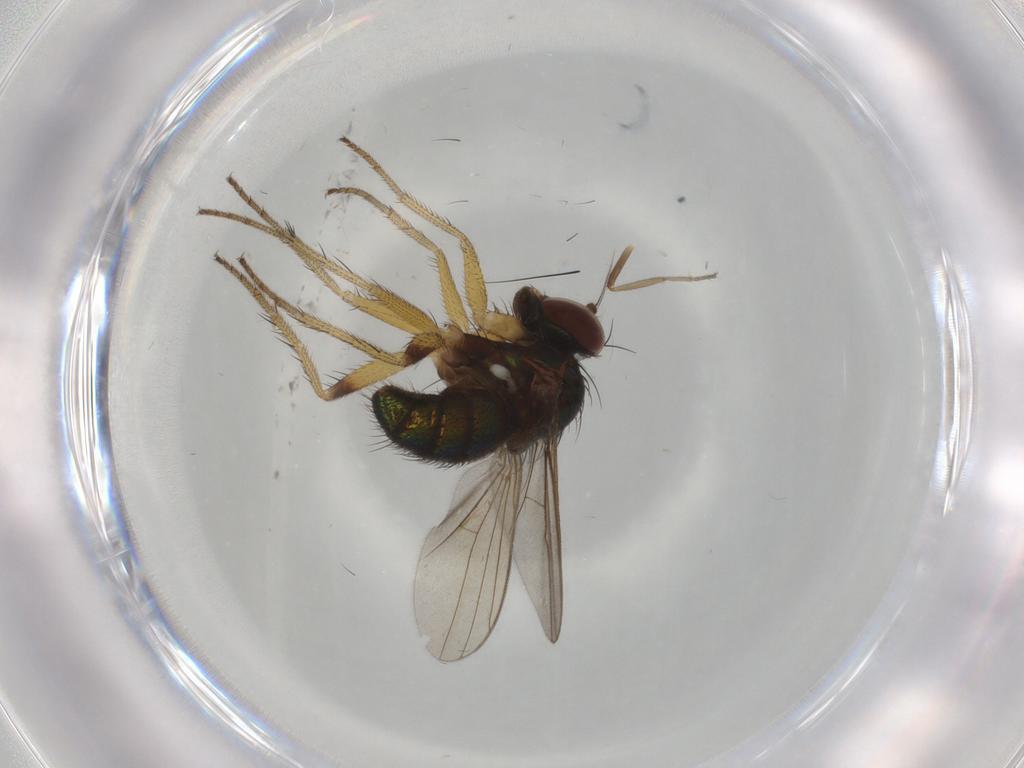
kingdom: Animalia
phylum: Arthropoda
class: Insecta
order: Diptera
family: Dolichopodidae
